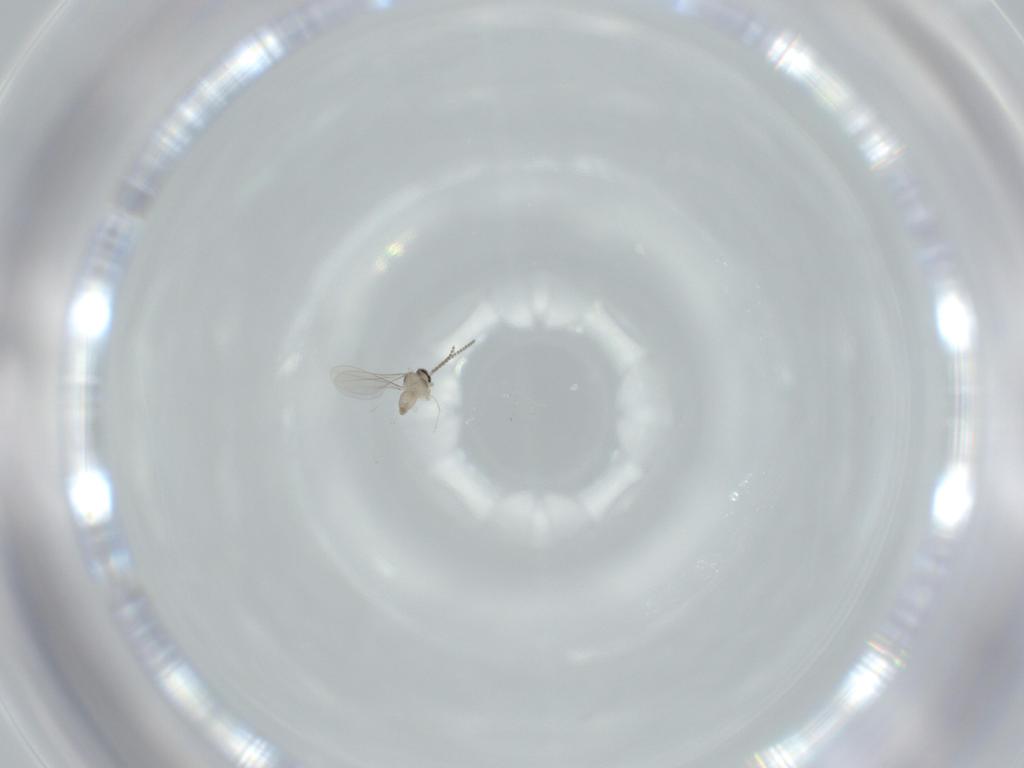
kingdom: Animalia
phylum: Arthropoda
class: Insecta
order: Diptera
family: Cecidomyiidae
